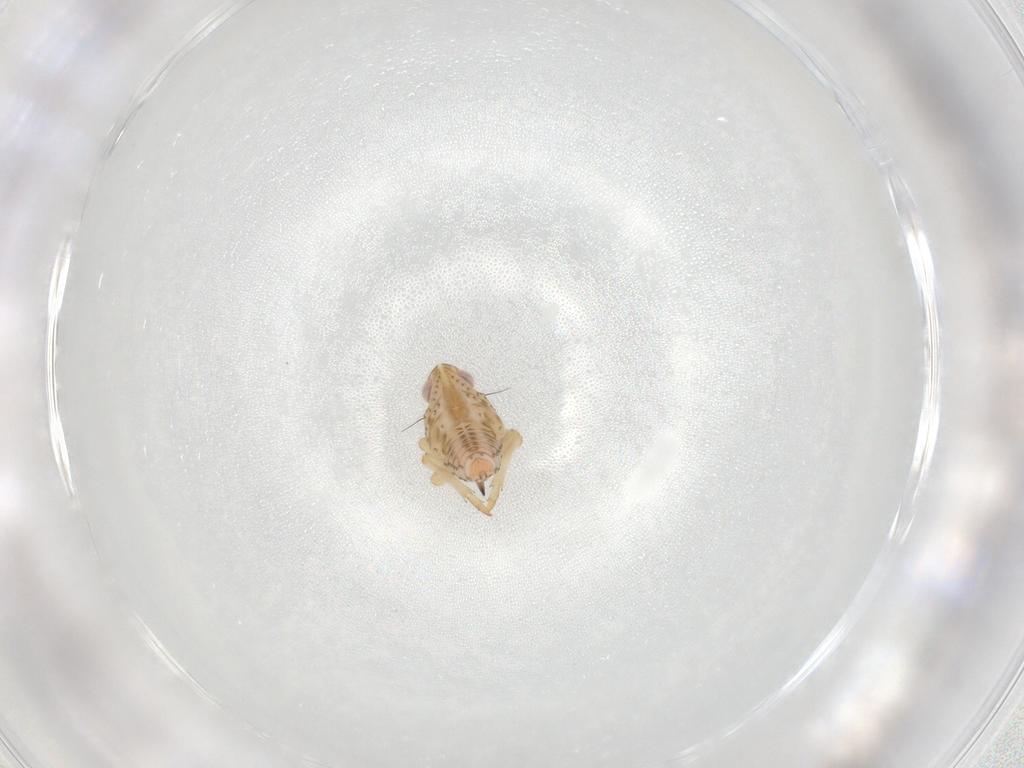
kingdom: Animalia
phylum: Arthropoda
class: Insecta
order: Hemiptera
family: Tropiduchidae
